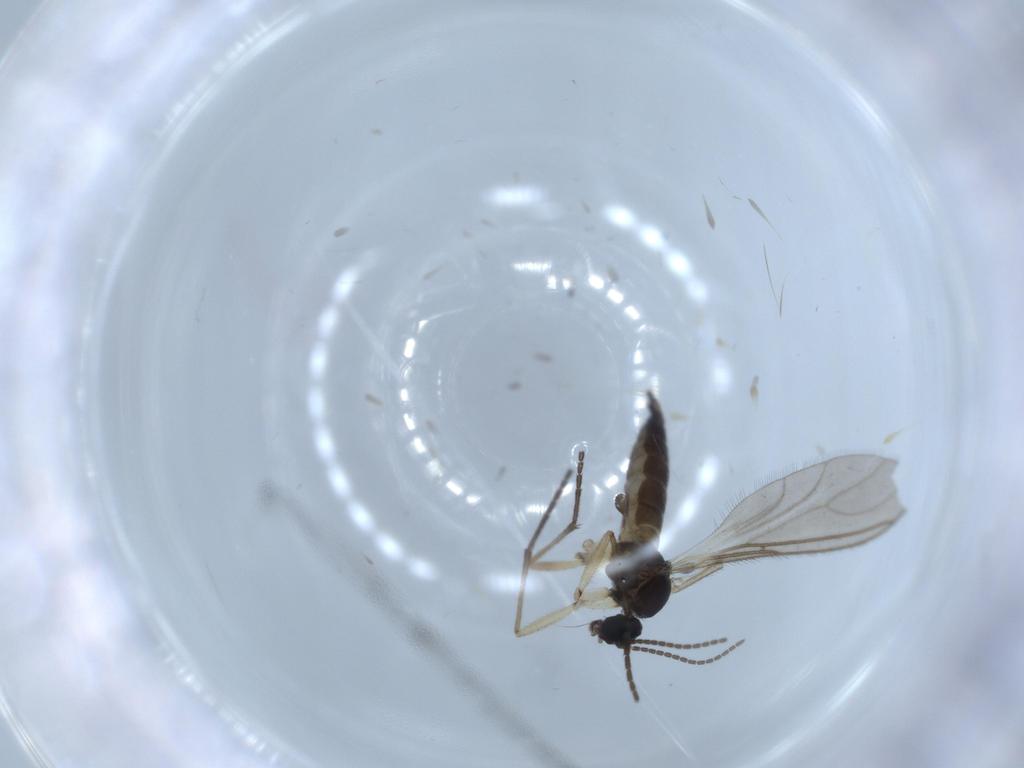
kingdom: Animalia
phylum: Arthropoda
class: Insecta
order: Diptera
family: Sciaridae
